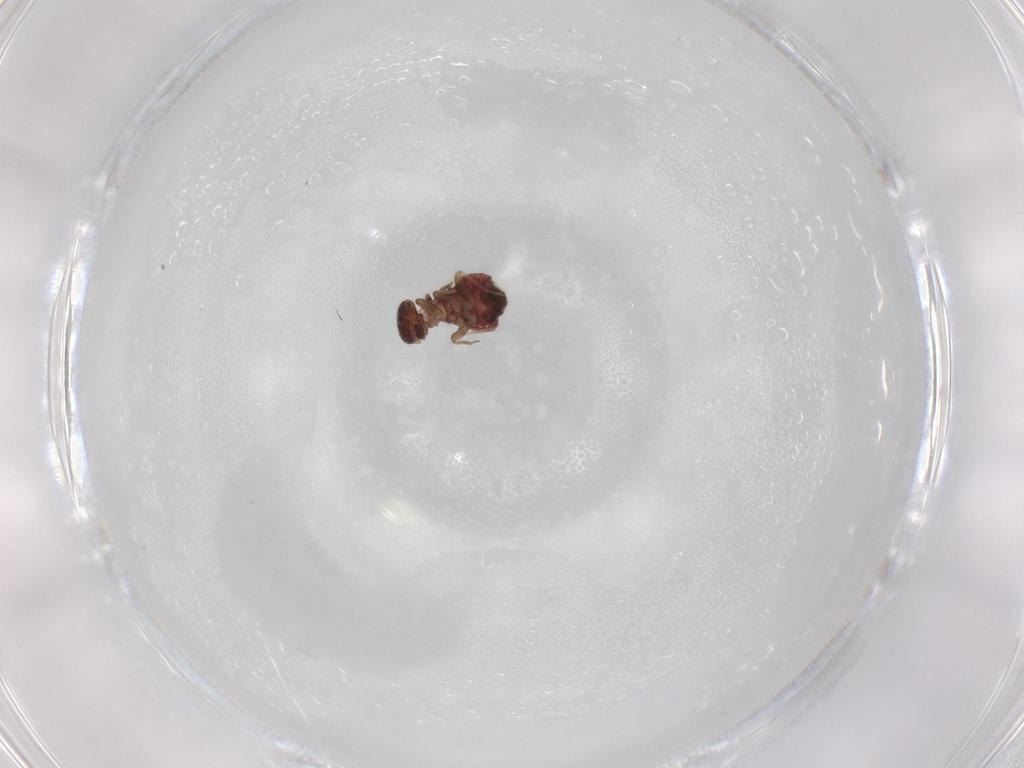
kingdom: Animalia
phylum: Arthropoda
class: Insecta
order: Psocodea
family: Archipsocidae
